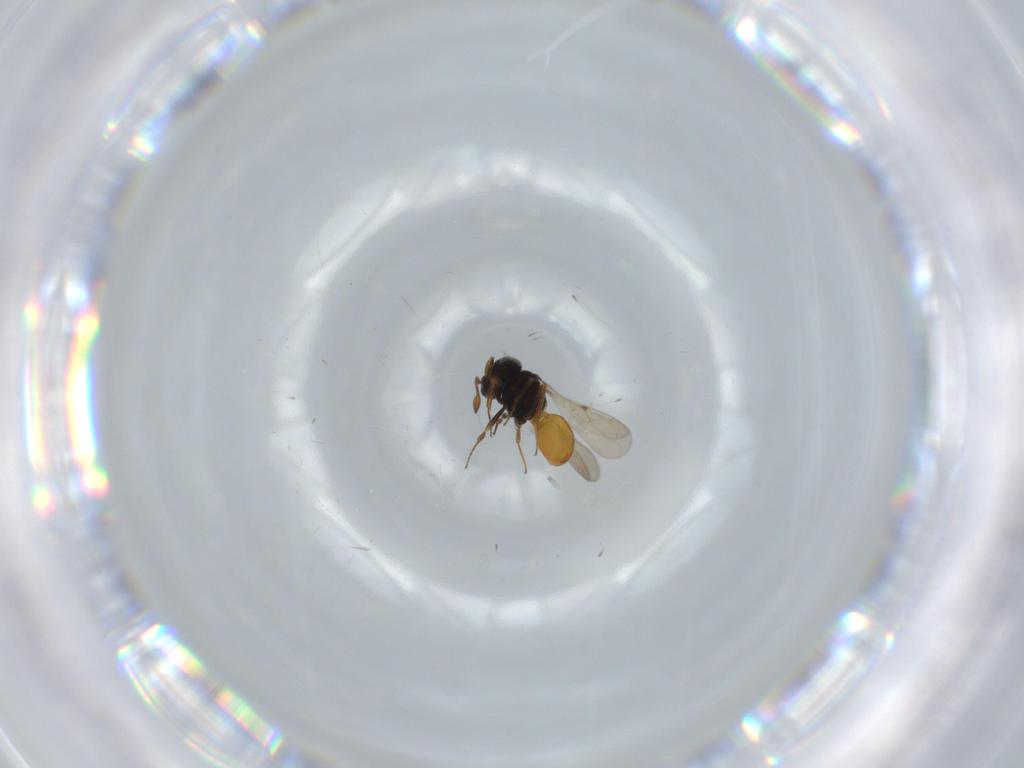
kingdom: Animalia
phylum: Arthropoda
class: Insecta
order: Hymenoptera
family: Scelionidae
